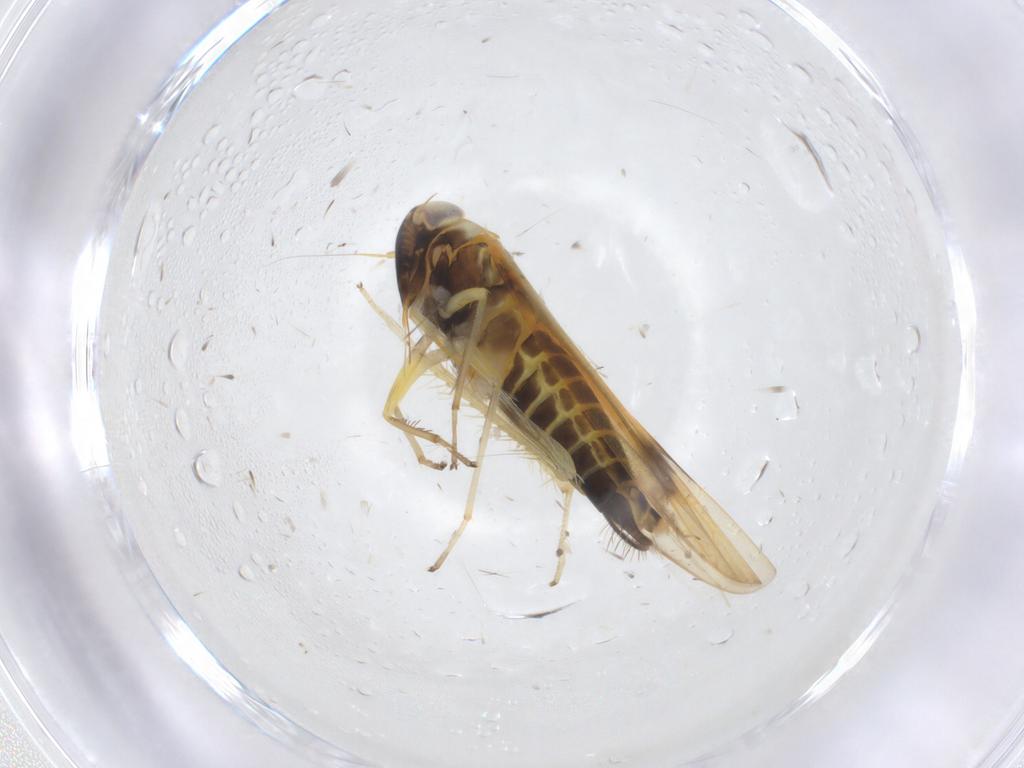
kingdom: Animalia
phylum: Arthropoda
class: Insecta
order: Hemiptera
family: Cicadellidae
